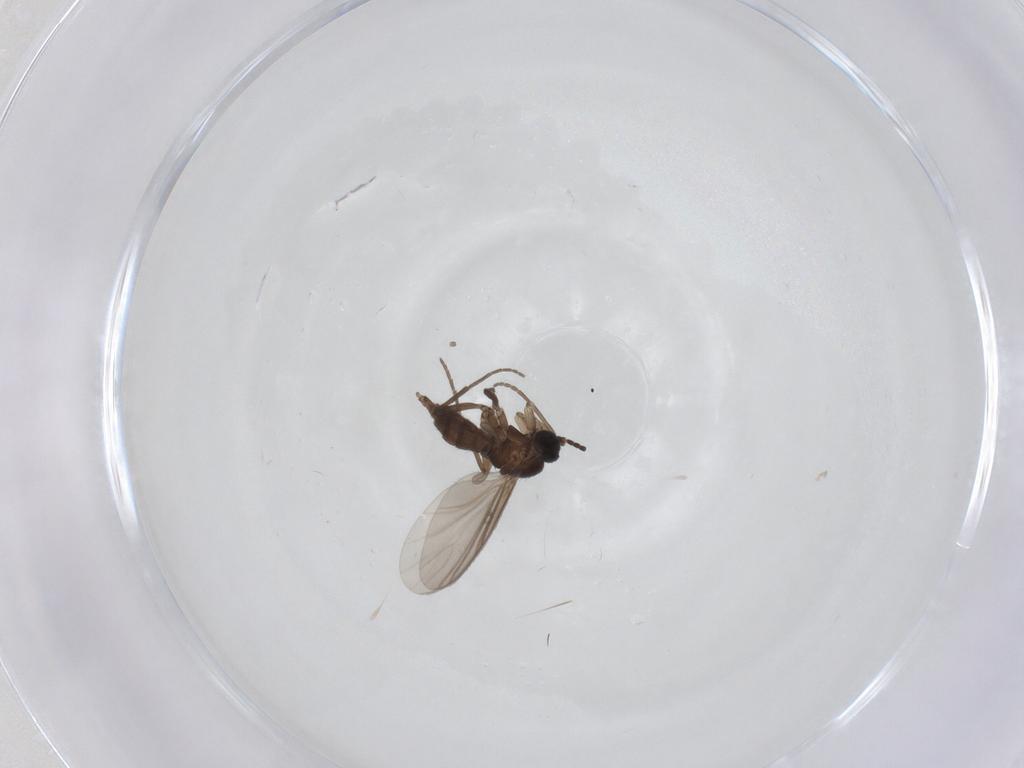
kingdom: Animalia
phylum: Arthropoda
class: Insecta
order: Diptera
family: Sciaridae
